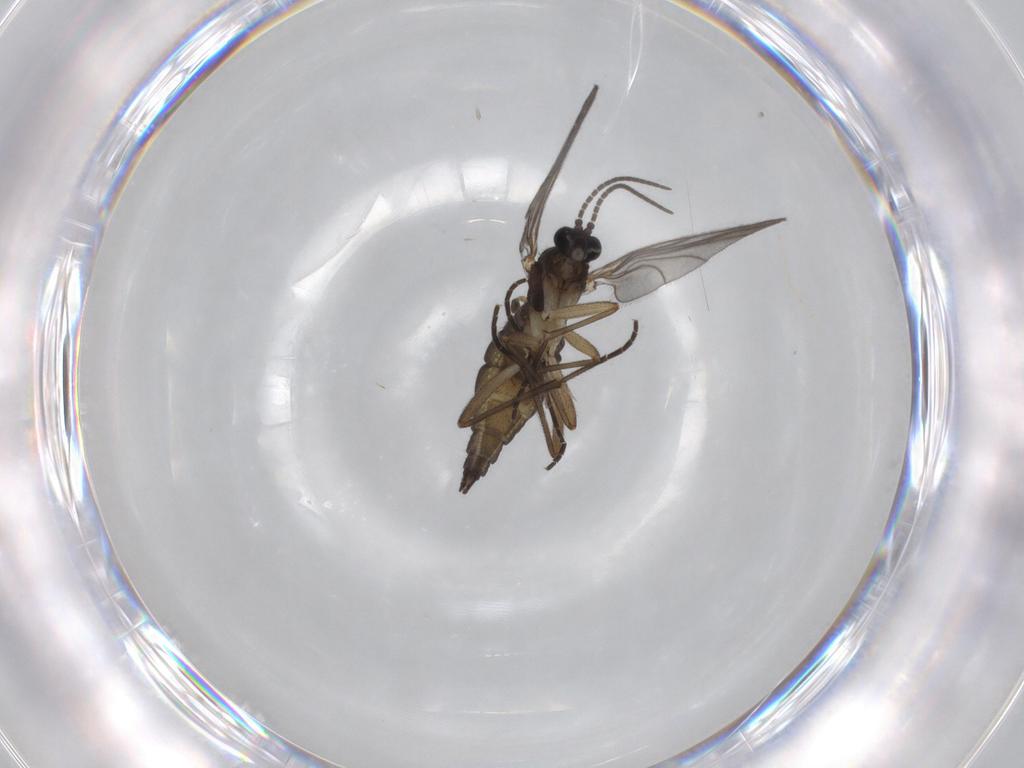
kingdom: Animalia
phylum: Arthropoda
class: Insecta
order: Diptera
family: Sciaridae
